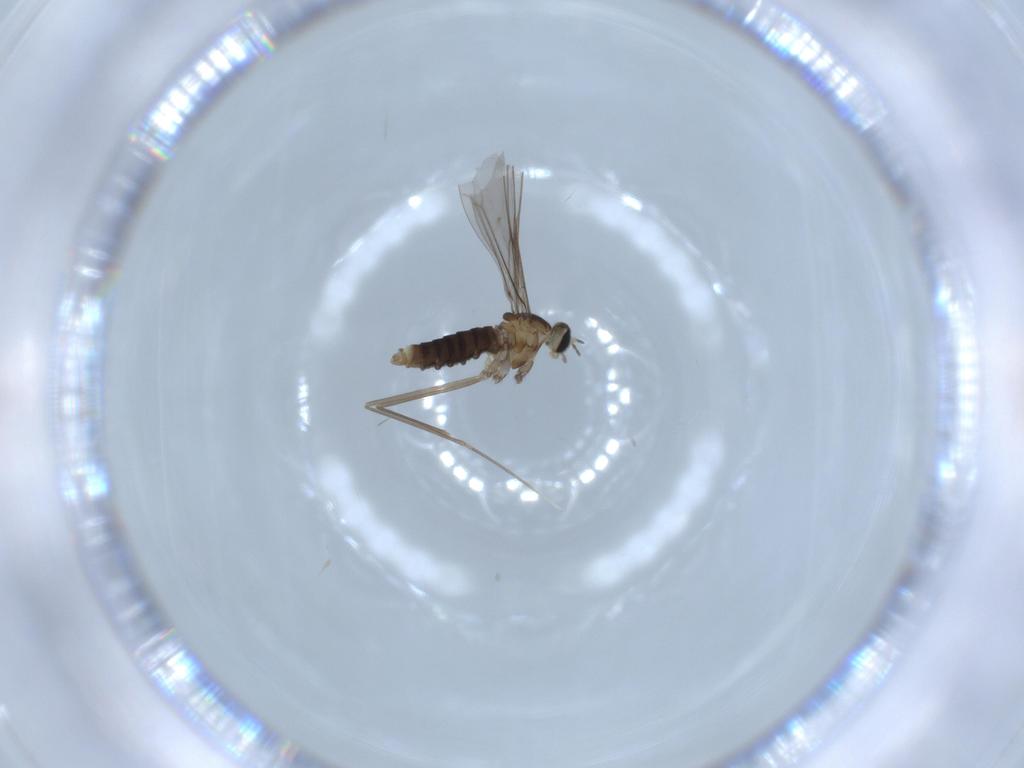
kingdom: Animalia
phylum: Arthropoda
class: Insecta
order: Diptera
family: Cecidomyiidae
